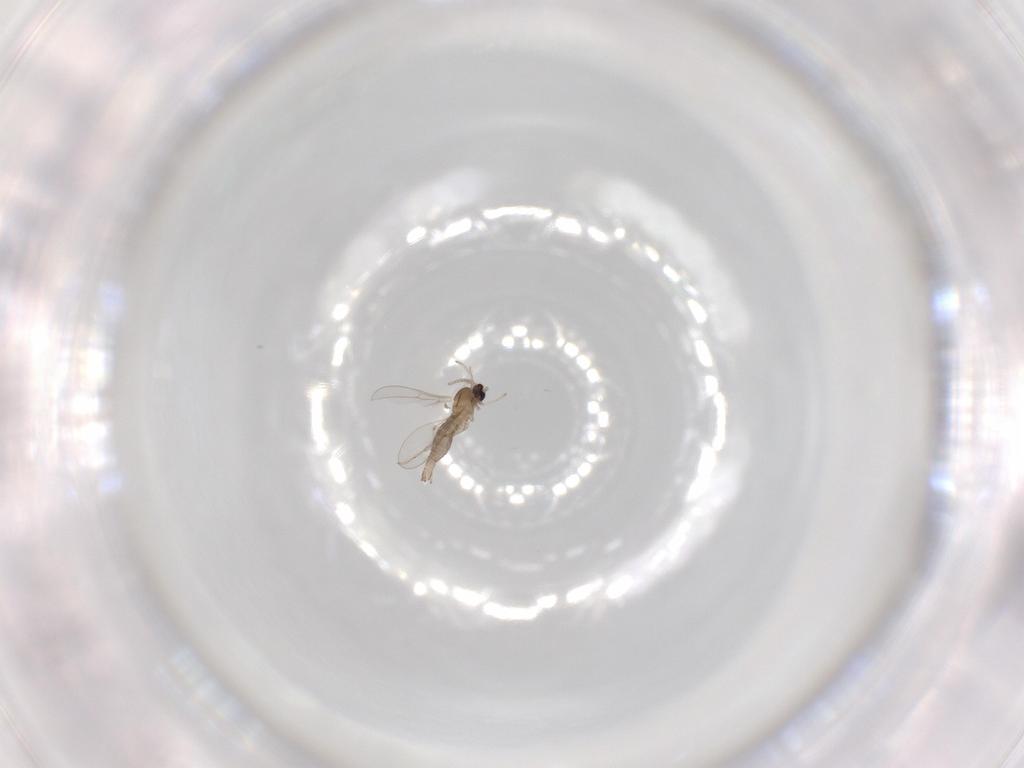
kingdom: Animalia
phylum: Arthropoda
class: Insecta
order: Diptera
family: Cecidomyiidae
